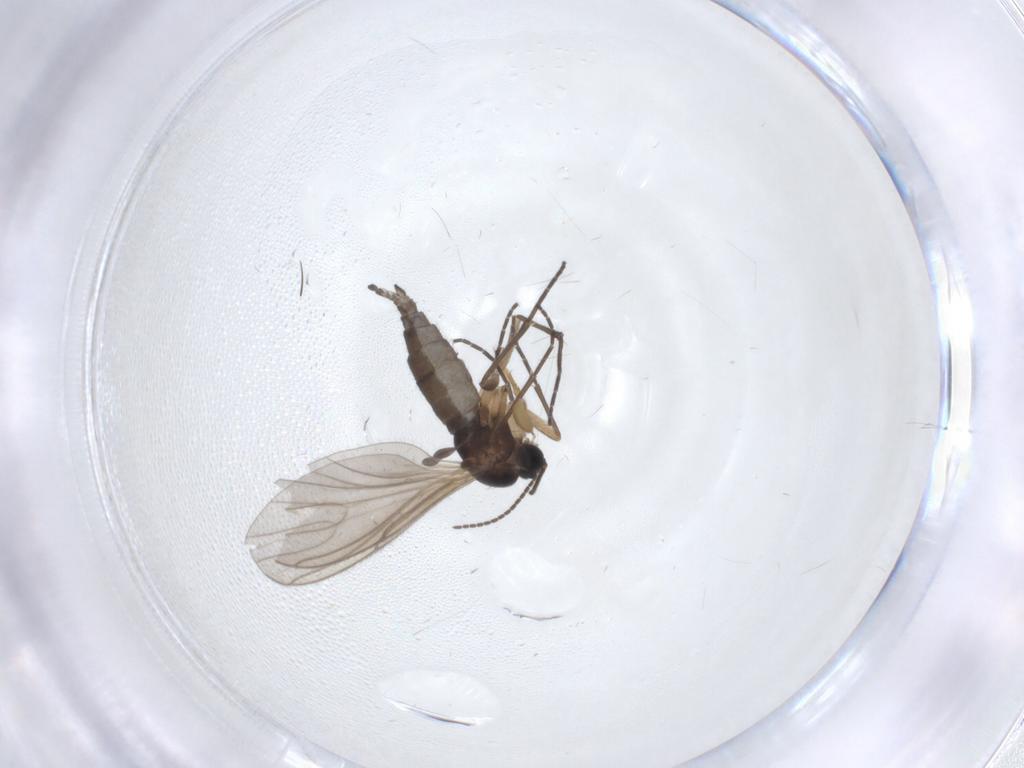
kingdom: Animalia
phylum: Arthropoda
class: Insecta
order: Diptera
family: Sciaridae
